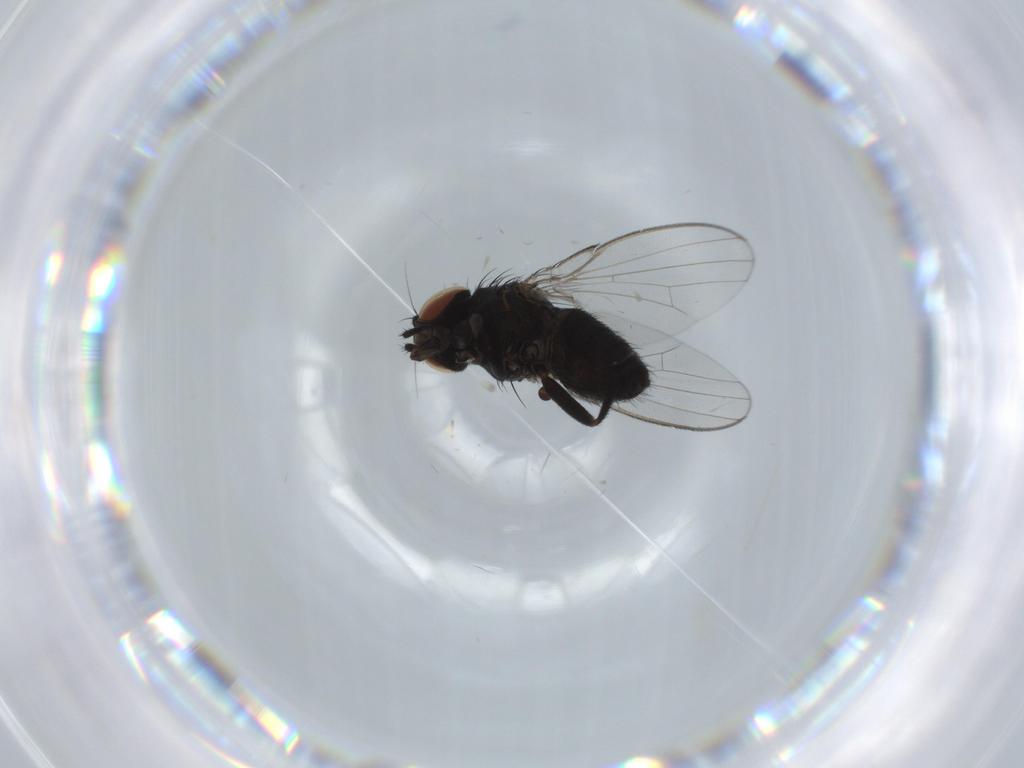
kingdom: Animalia
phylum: Arthropoda
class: Insecta
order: Diptera
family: Milichiidae
